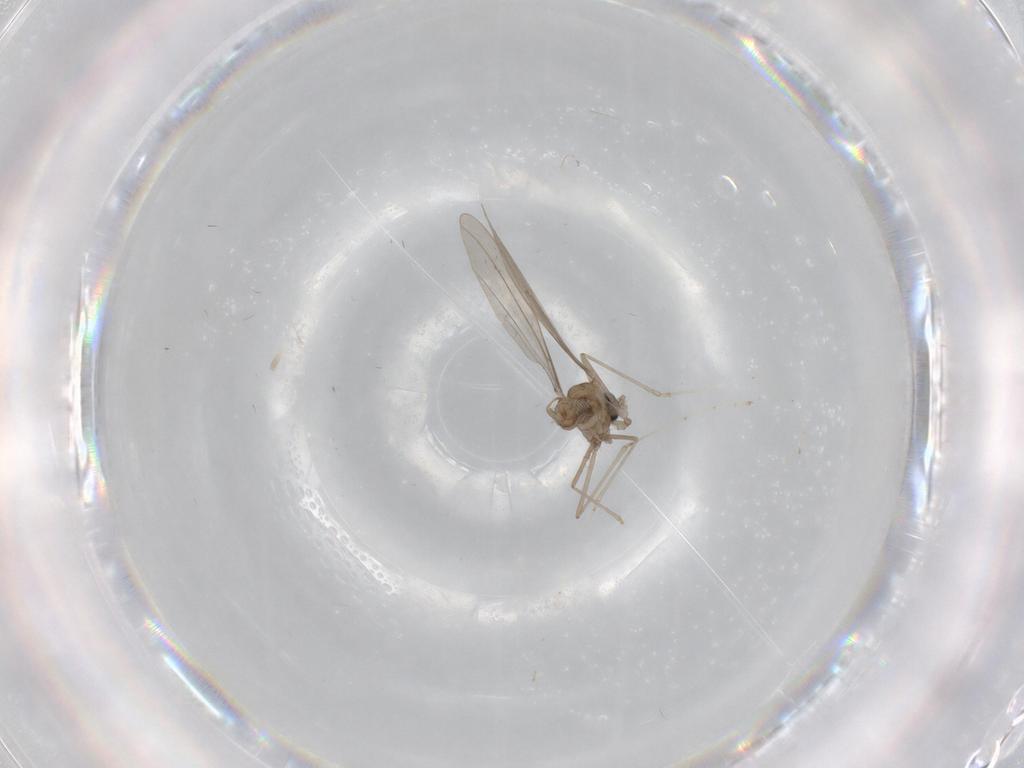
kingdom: Animalia
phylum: Arthropoda
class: Insecta
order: Diptera
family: Cecidomyiidae
